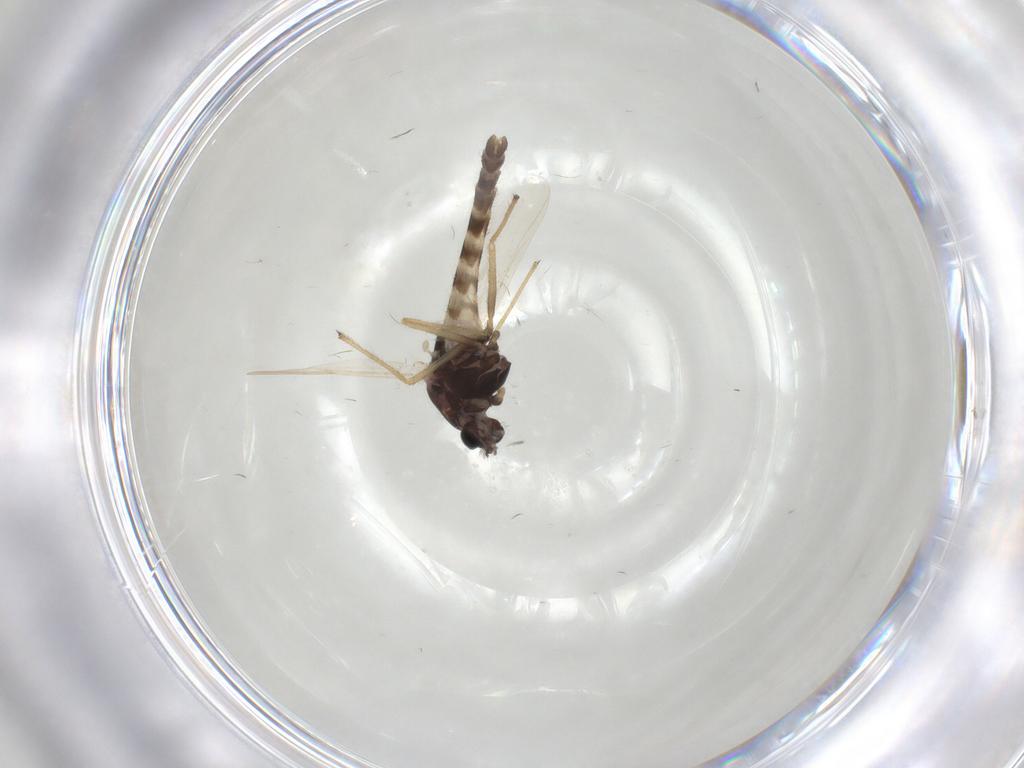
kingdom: Animalia
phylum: Arthropoda
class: Insecta
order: Diptera
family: Chironomidae
